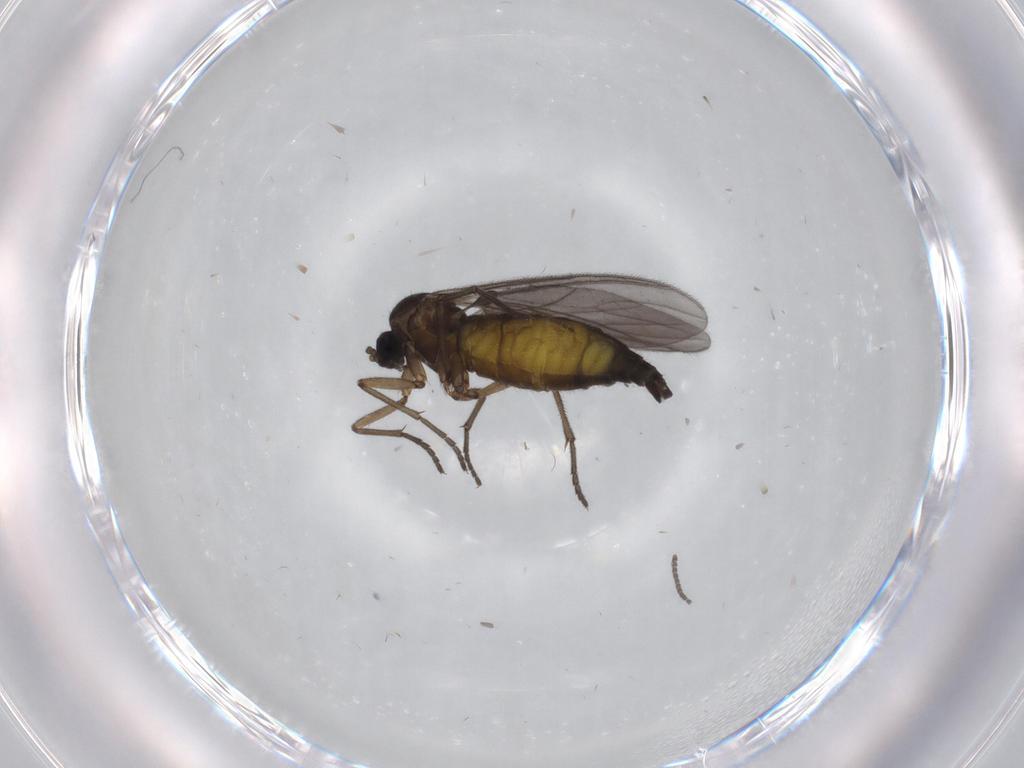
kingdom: Animalia
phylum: Arthropoda
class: Insecta
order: Diptera
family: Sciaridae
